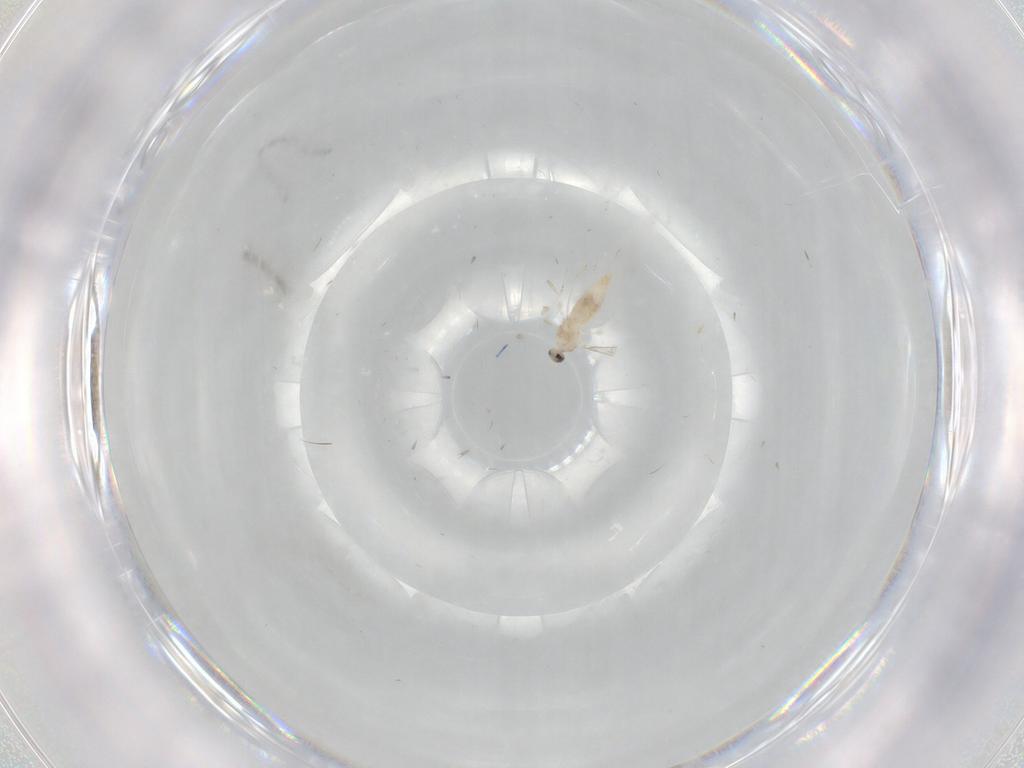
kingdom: Animalia
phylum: Arthropoda
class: Insecta
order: Diptera
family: Cecidomyiidae
